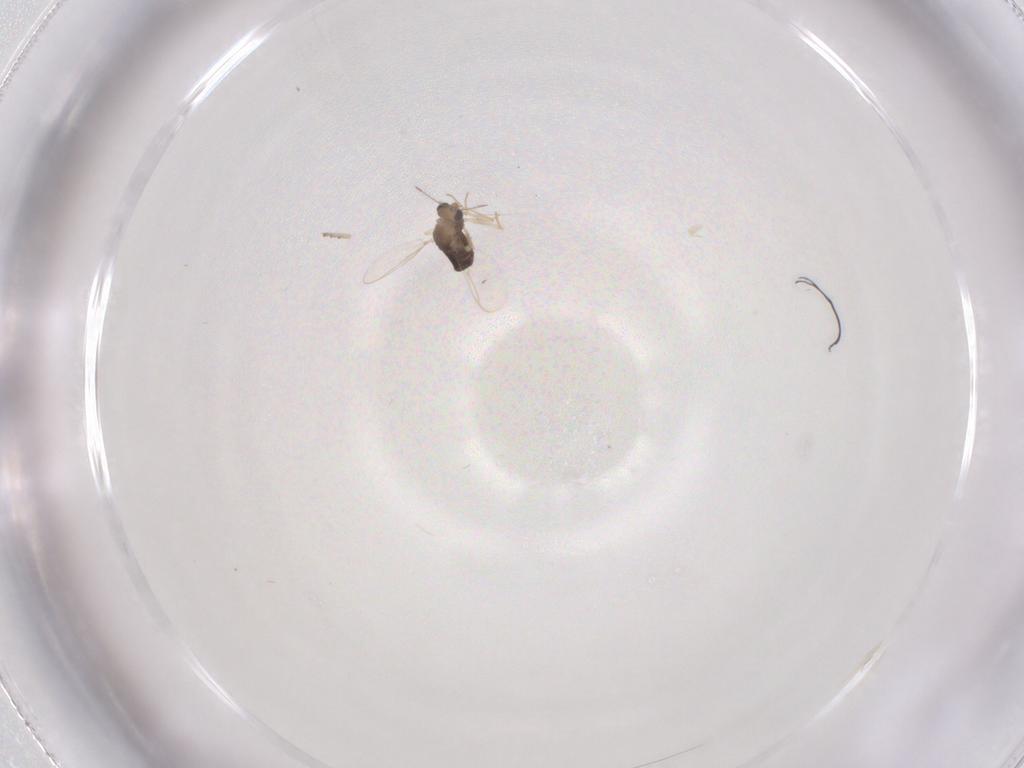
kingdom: Animalia
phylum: Arthropoda
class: Insecta
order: Diptera
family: Chironomidae
